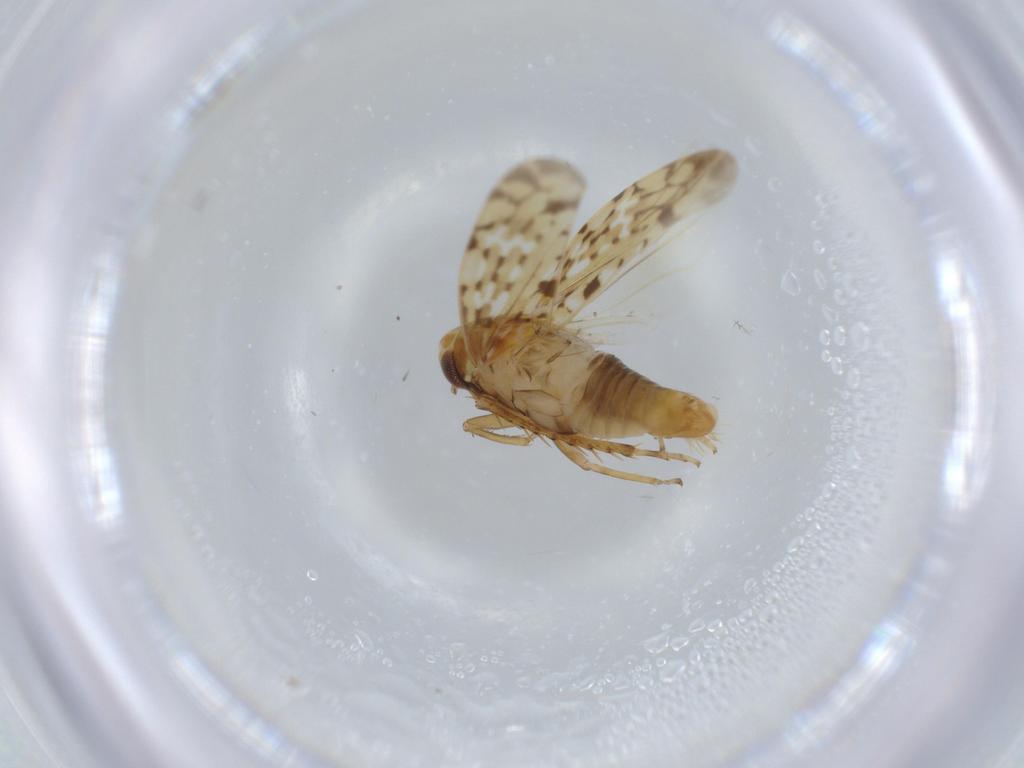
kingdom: Animalia
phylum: Arthropoda
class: Insecta
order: Hemiptera
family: Cicadellidae
